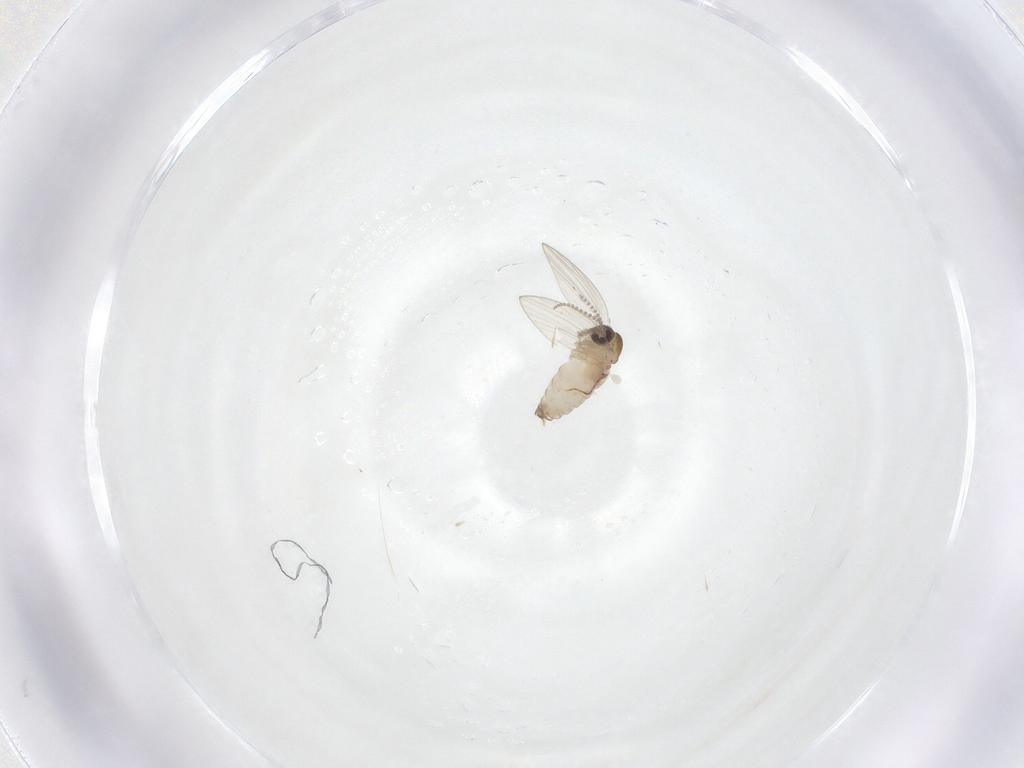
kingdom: Animalia
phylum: Arthropoda
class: Insecta
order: Diptera
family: Psychodidae
